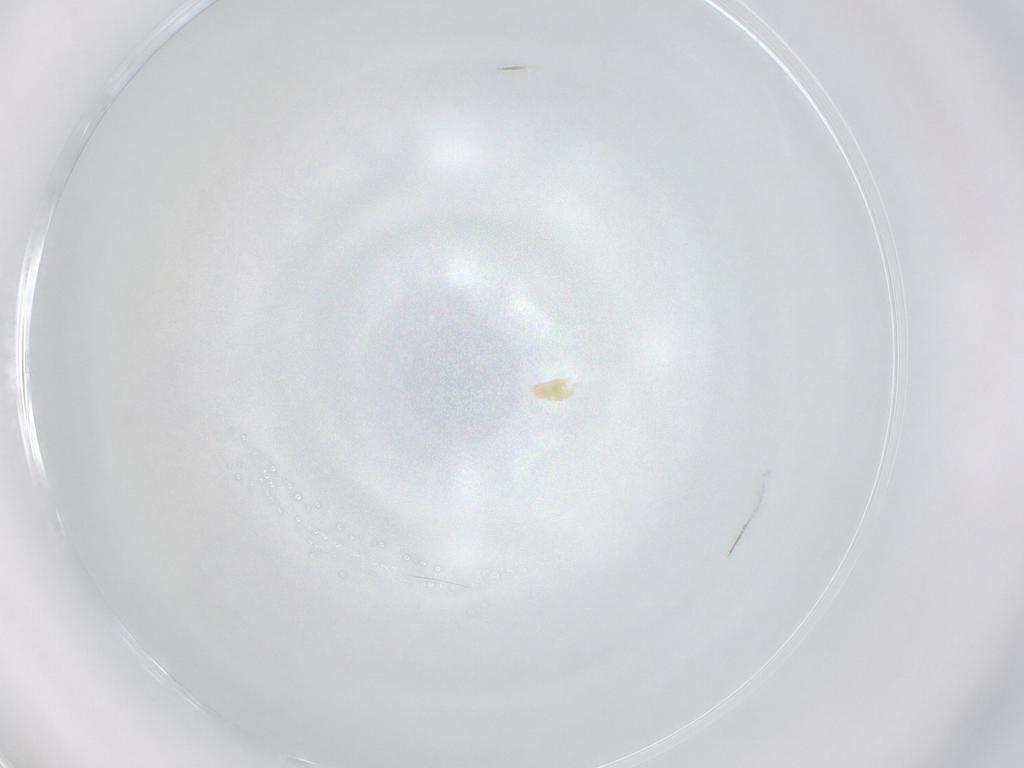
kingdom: Animalia
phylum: Arthropoda
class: Arachnida
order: Trombidiformes
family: Eupodidae
